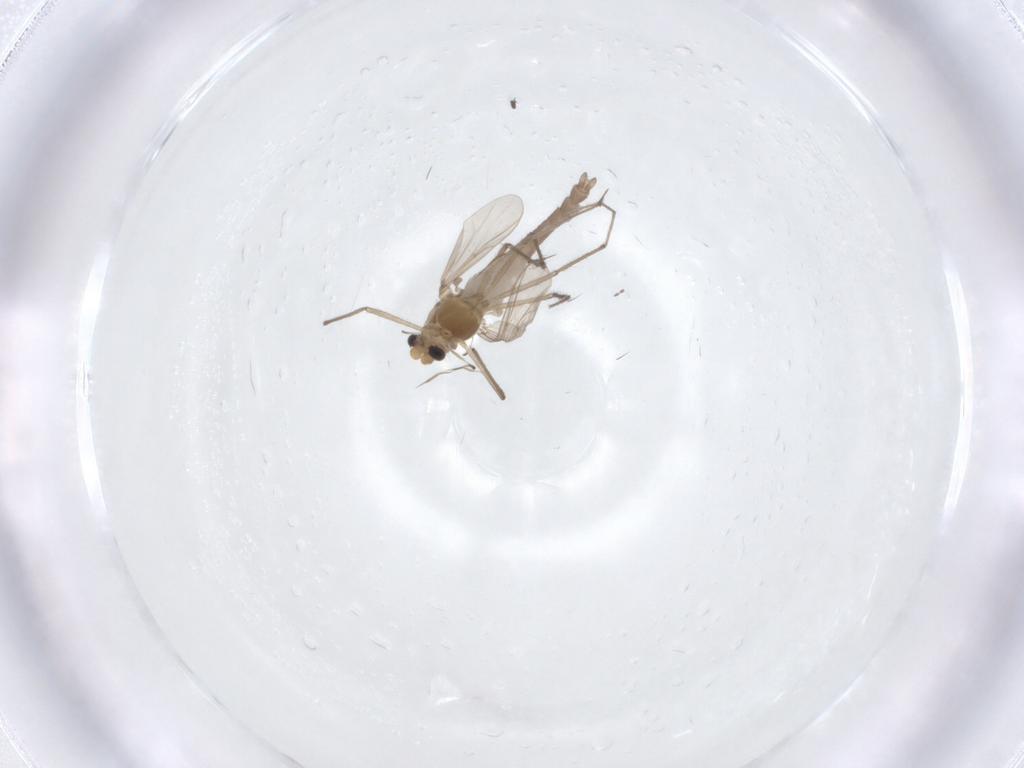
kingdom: Animalia
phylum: Arthropoda
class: Insecta
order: Diptera
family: Chironomidae
